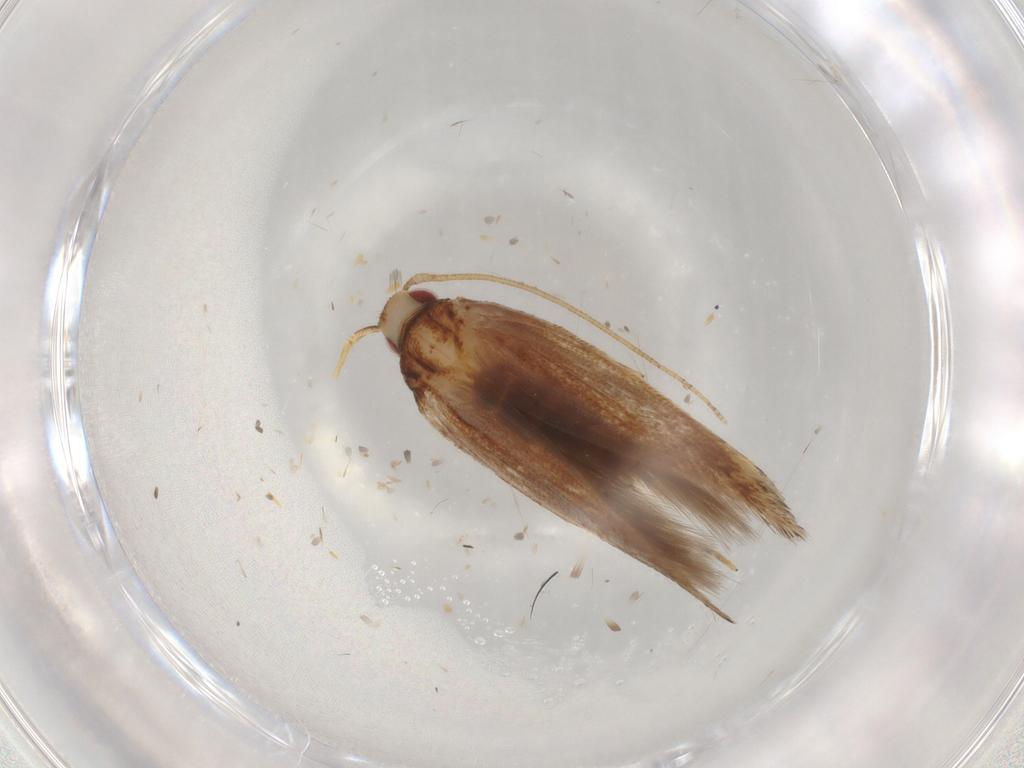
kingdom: Animalia
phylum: Arthropoda
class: Insecta
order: Lepidoptera
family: Cosmopterigidae
